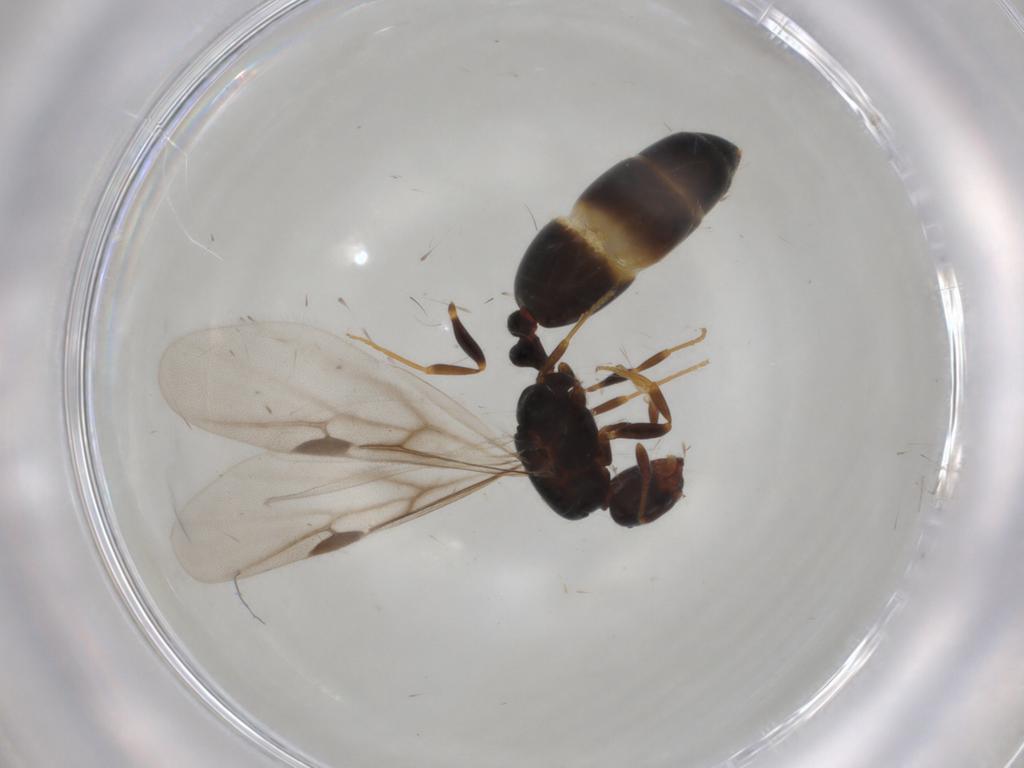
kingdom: Animalia
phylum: Arthropoda
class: Insecta
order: Hymenoptera
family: Formicidae
